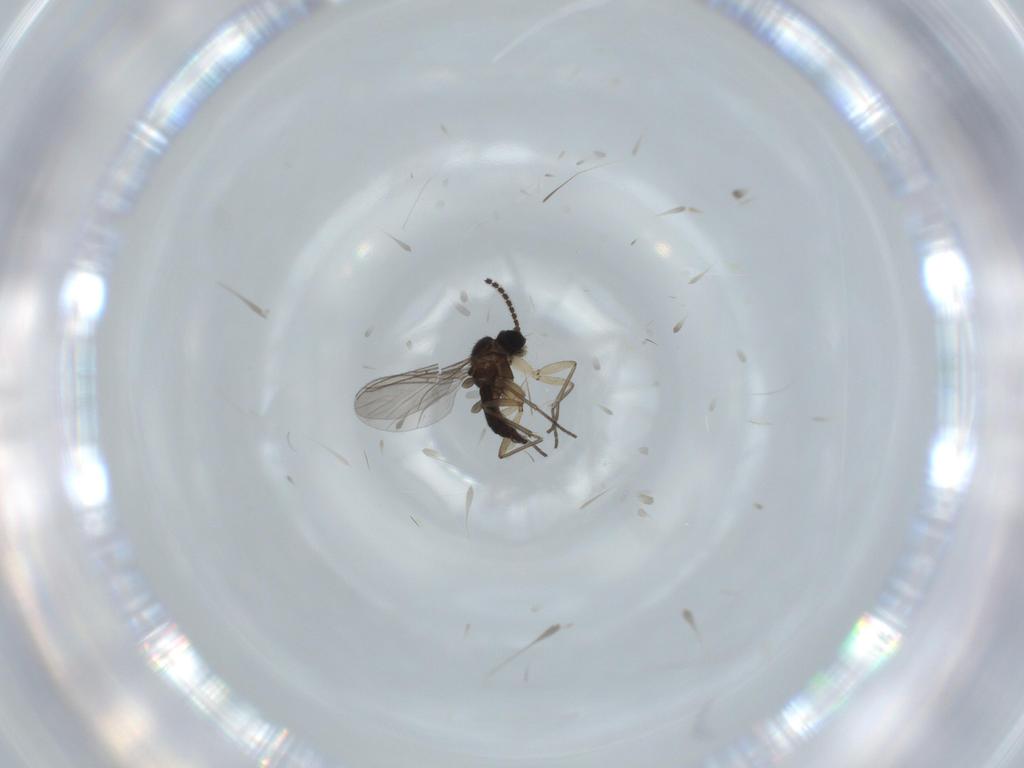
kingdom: Animalia
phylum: Arthropoda
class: Insecta
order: Diptera
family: Sciaridae
